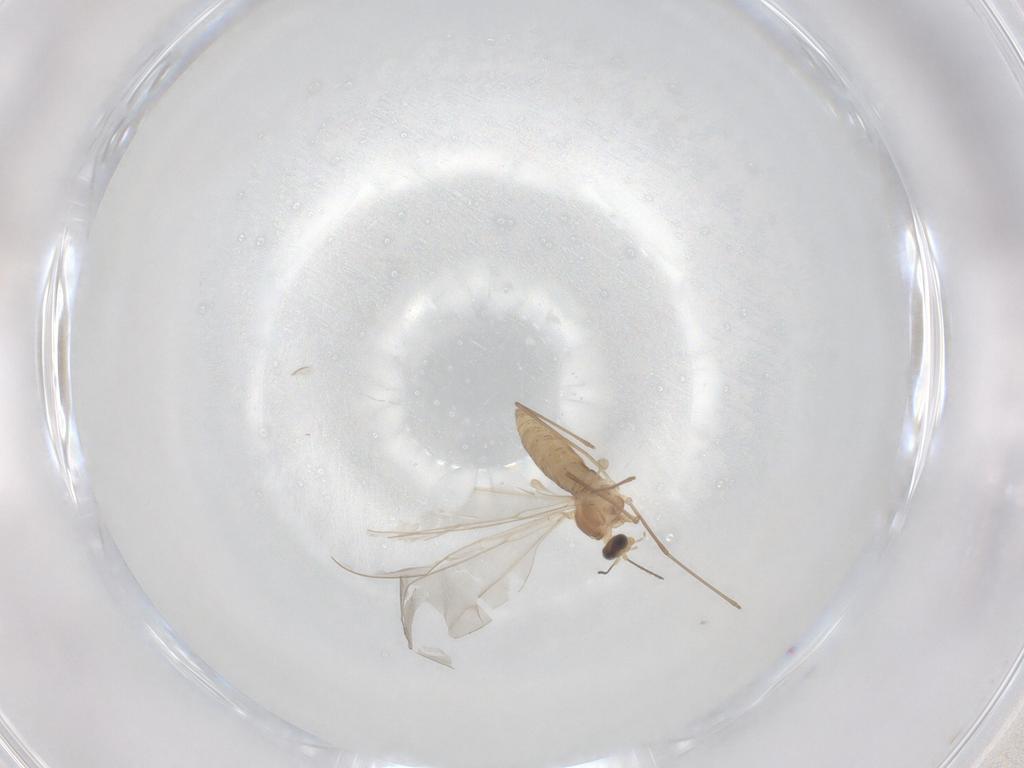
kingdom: Animalia
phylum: Arthropoda
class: Insecta
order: Diptera
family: Cecidomyiidae
